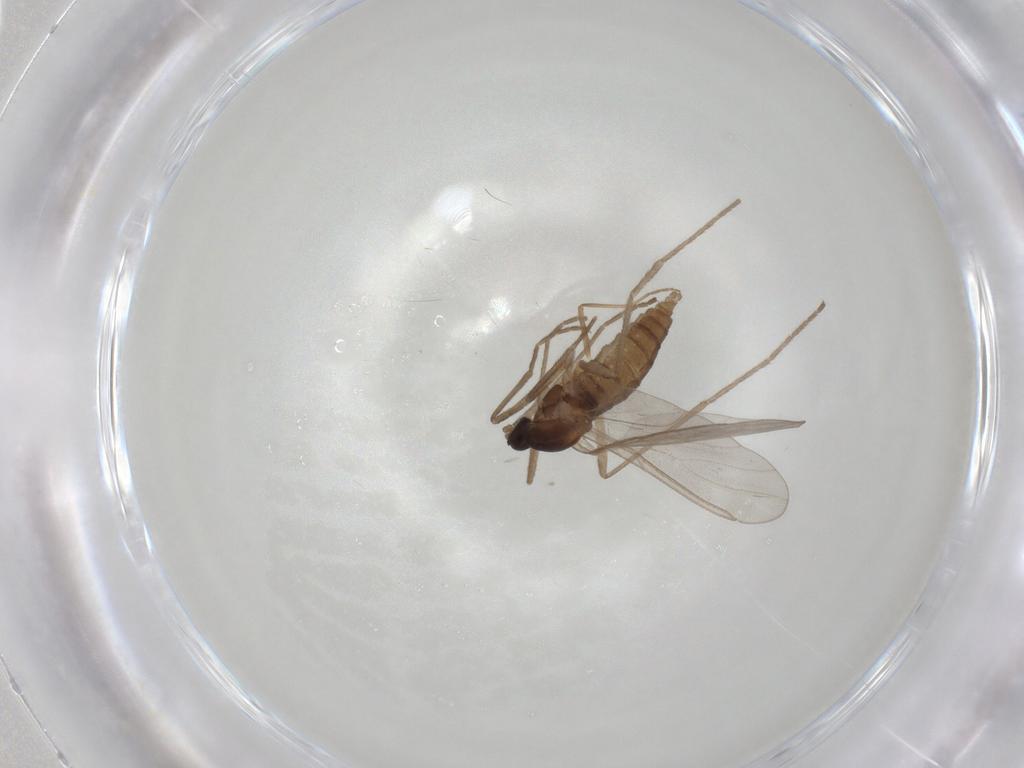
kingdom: Animalia
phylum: Arthropoda
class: Insecta
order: Diptera
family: Cecidomyiidae
